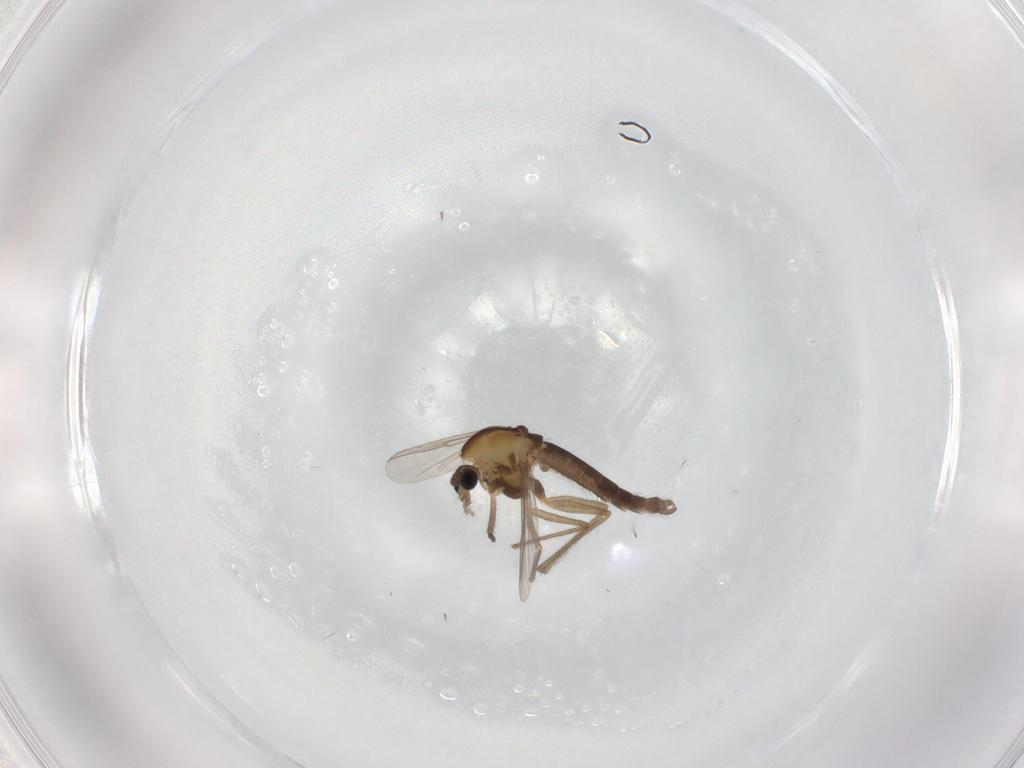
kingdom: Animalia
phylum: Arthropoda
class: Insecta
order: Diptera
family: Chironomidae
